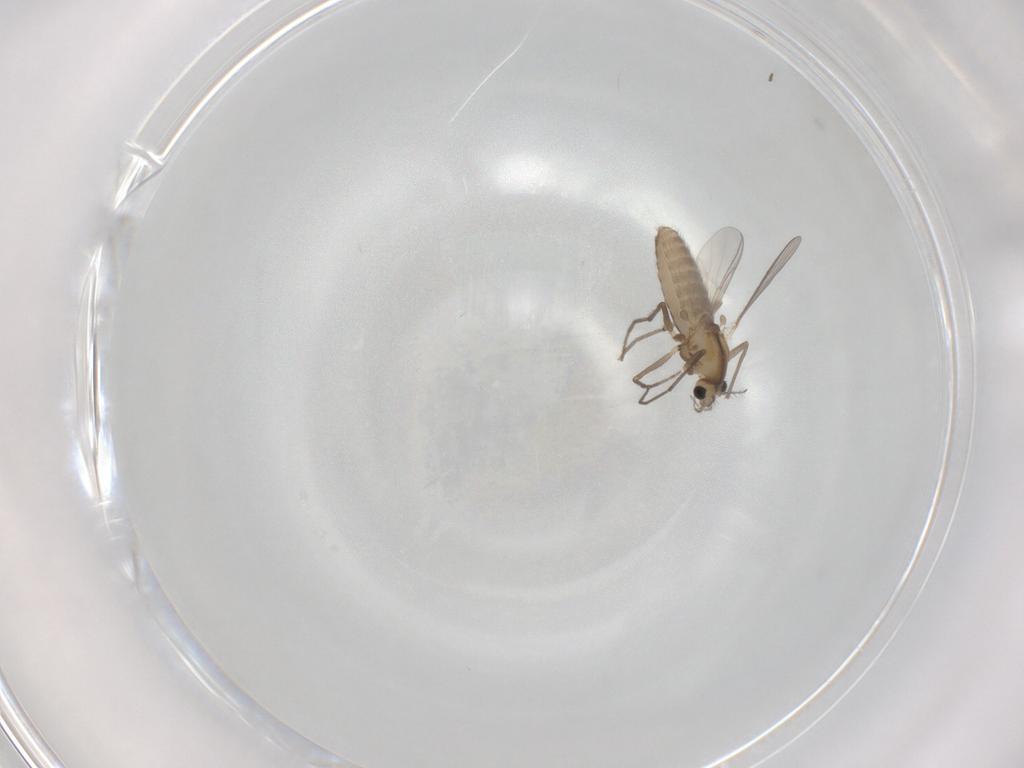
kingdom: Animalia
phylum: Arthropoda
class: Insecta
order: Diptera
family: Chironomidae
